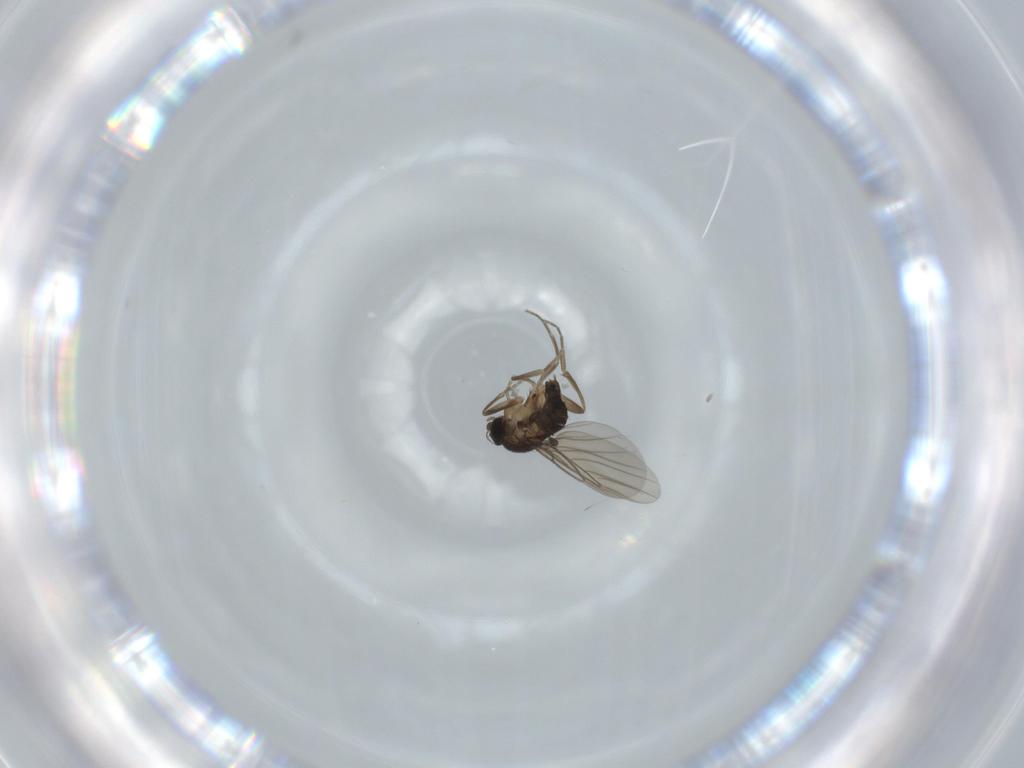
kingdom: Animalia
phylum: Arthropoda
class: Insecta
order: Diptera
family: Phoridae
